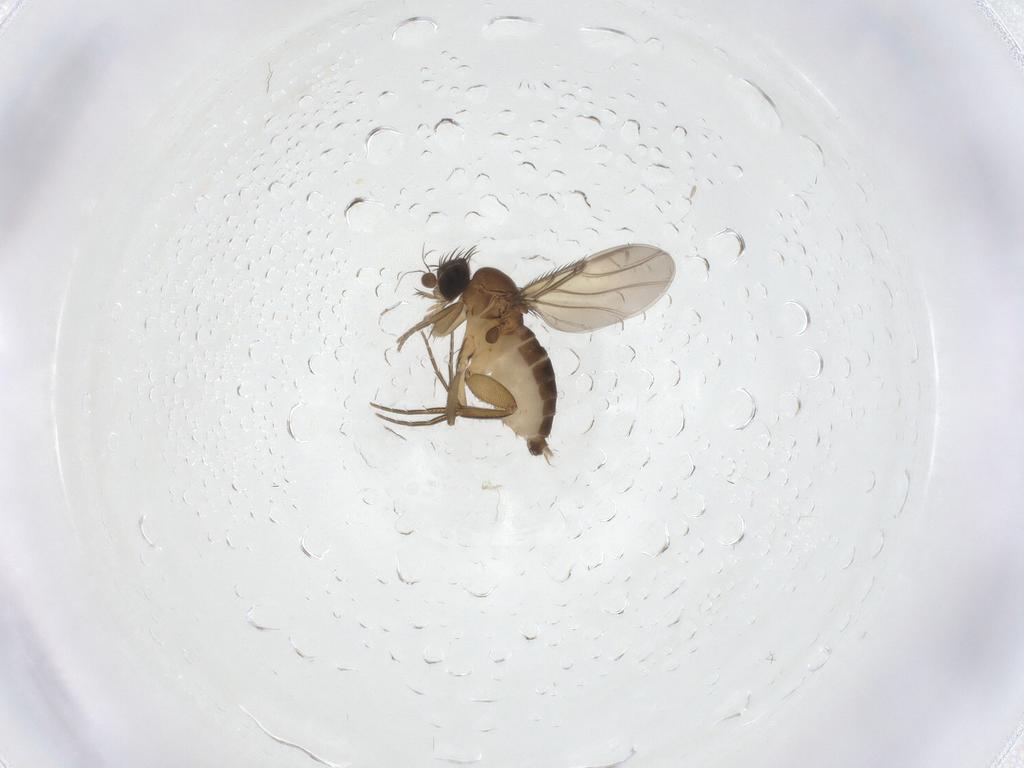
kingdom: Animalia
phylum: Arthropoda
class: Insecta
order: Diptera
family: Phoridae
